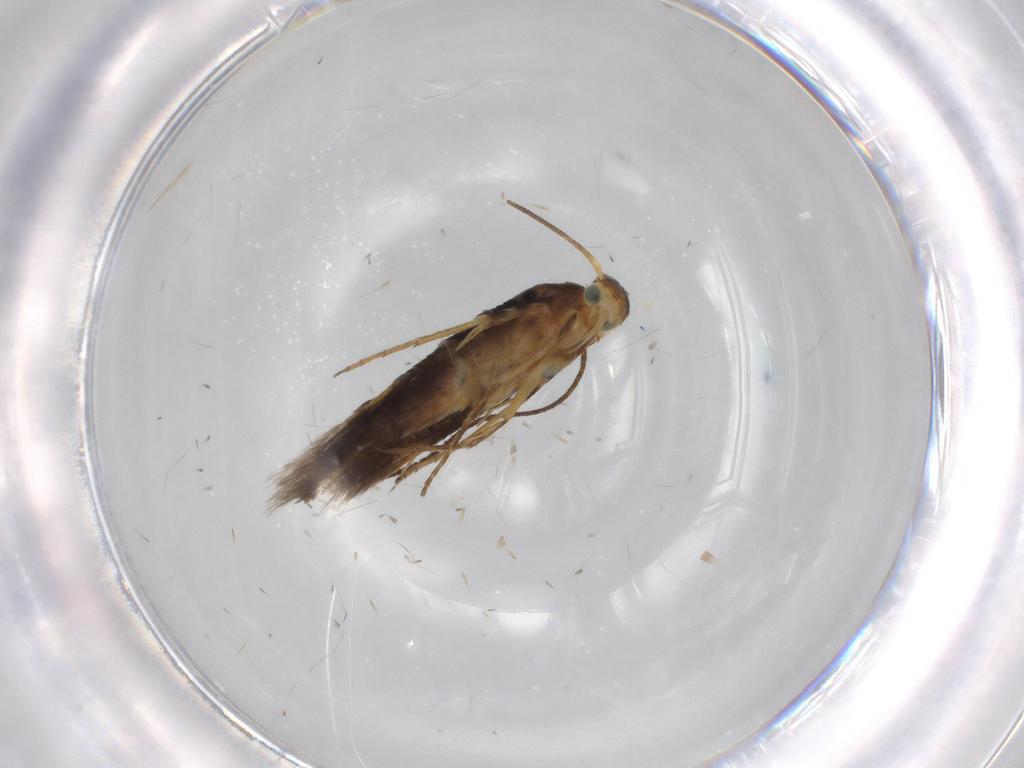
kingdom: Animalia
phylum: Arthropoda
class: Insecta
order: Lepidoptera
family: Heliodinidae
